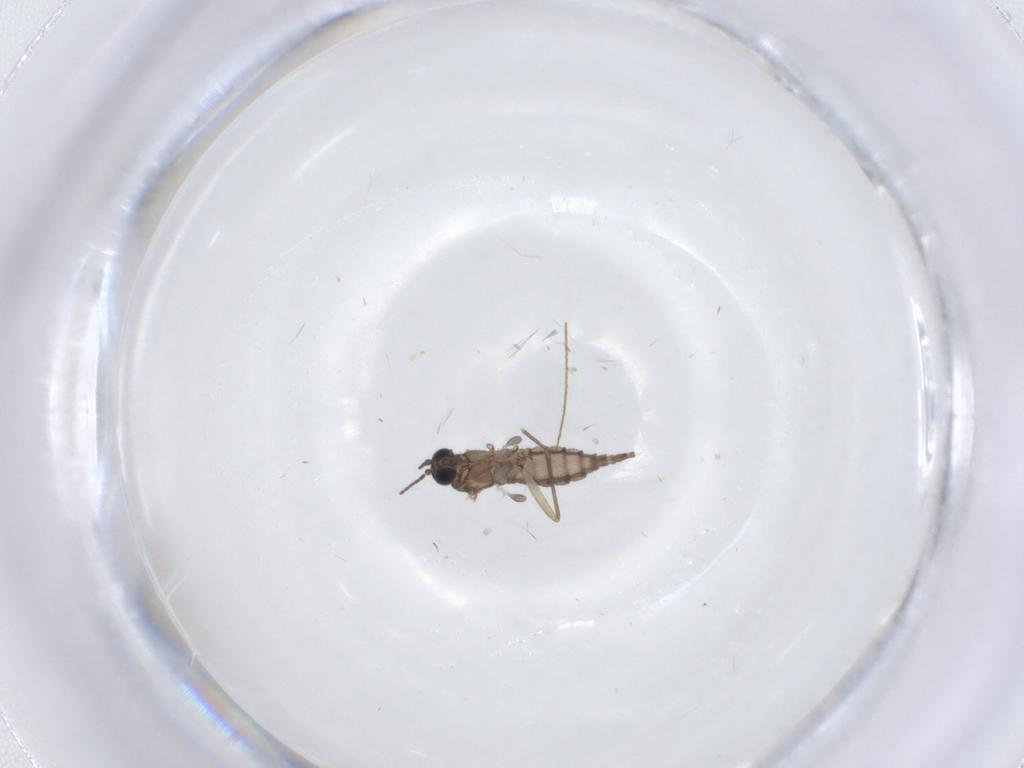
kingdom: Animalia
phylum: Arthropoda
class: Insecta
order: Diptera
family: Sciaridae
